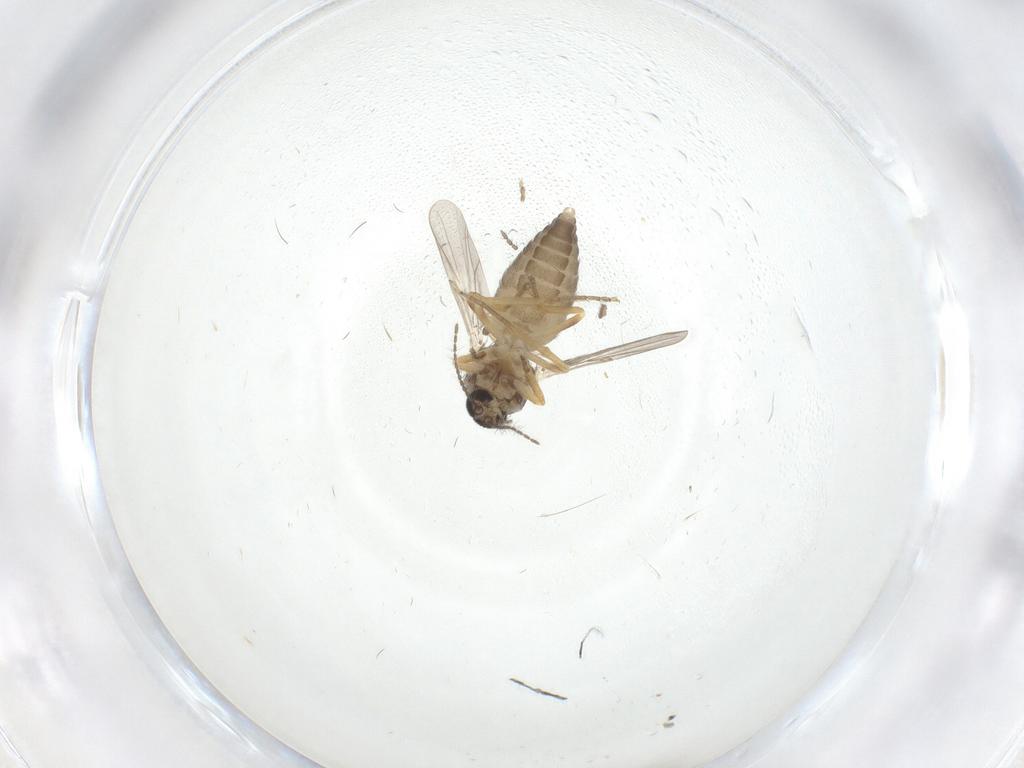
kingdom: Animalia
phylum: Arthropoda
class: Insecta
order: Diptera
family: Ceratopogonidae
